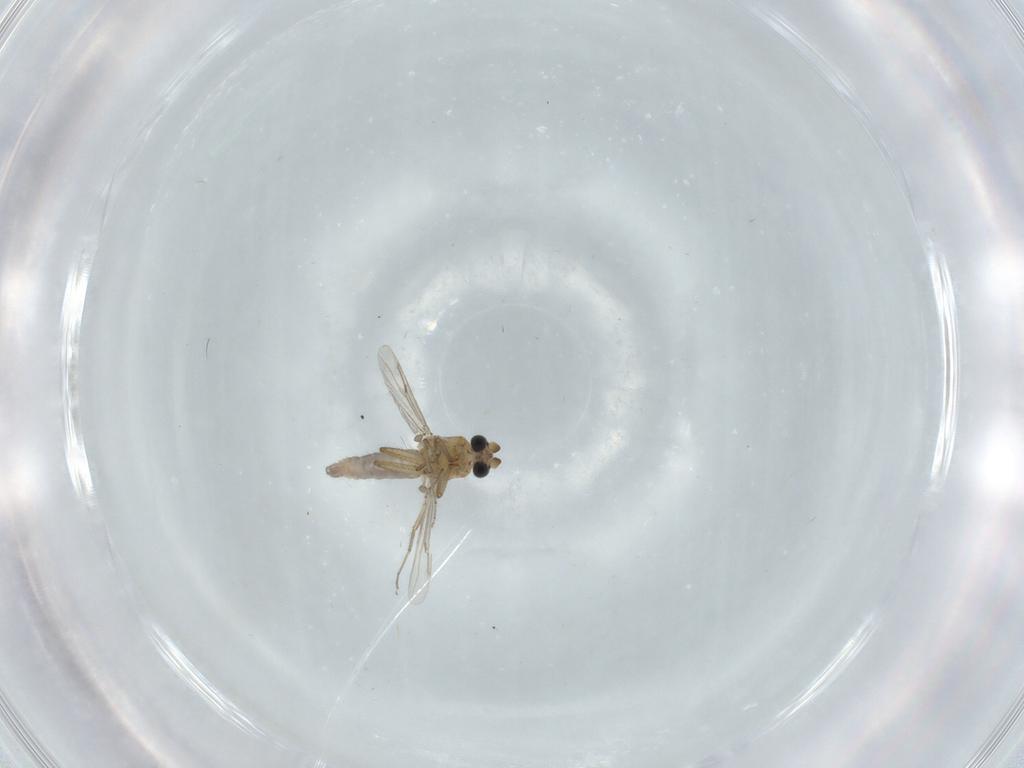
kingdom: Animalia
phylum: Arthropoda
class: Insecta
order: Diptera
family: Ceratopogonidae
